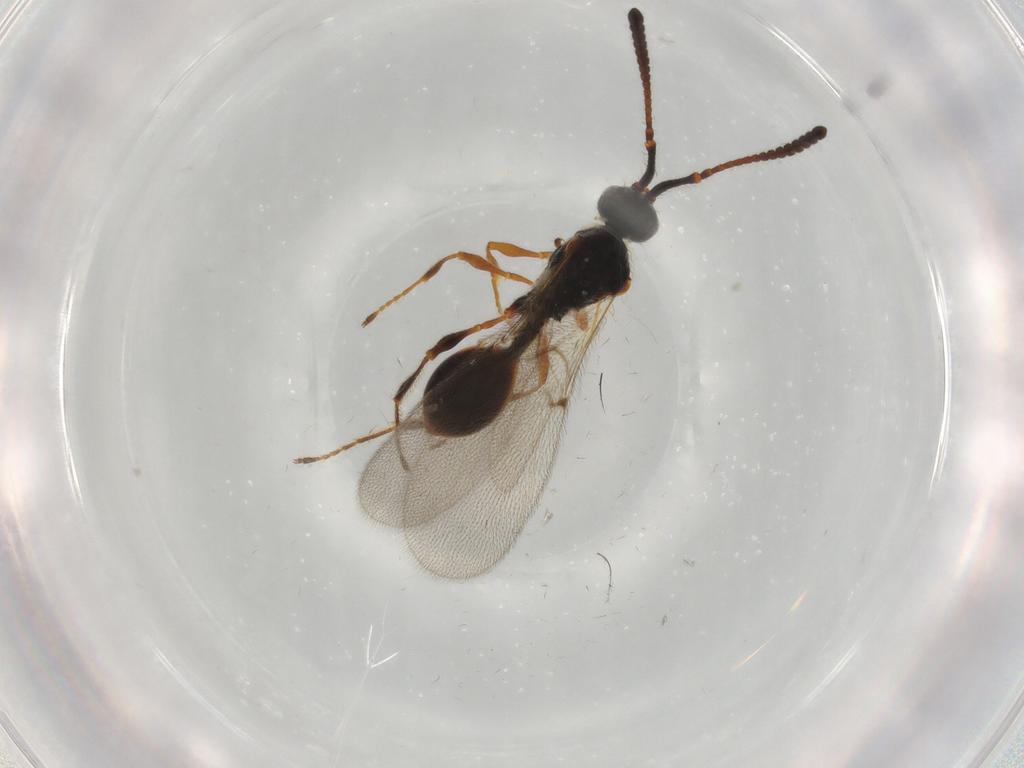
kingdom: Animalia
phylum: Arthropoda
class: Insecta
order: Hymenoptera
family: Diapriidae
